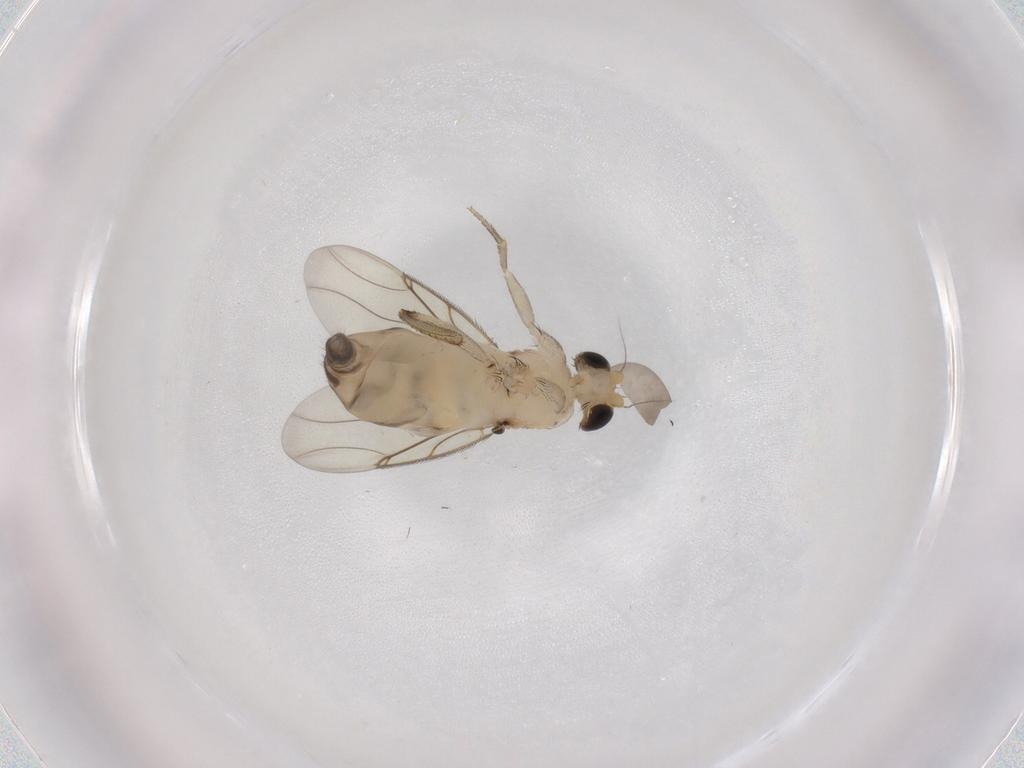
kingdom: Animalia
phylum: Arthropoda
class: Insecta
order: Diptera
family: Phoridae
